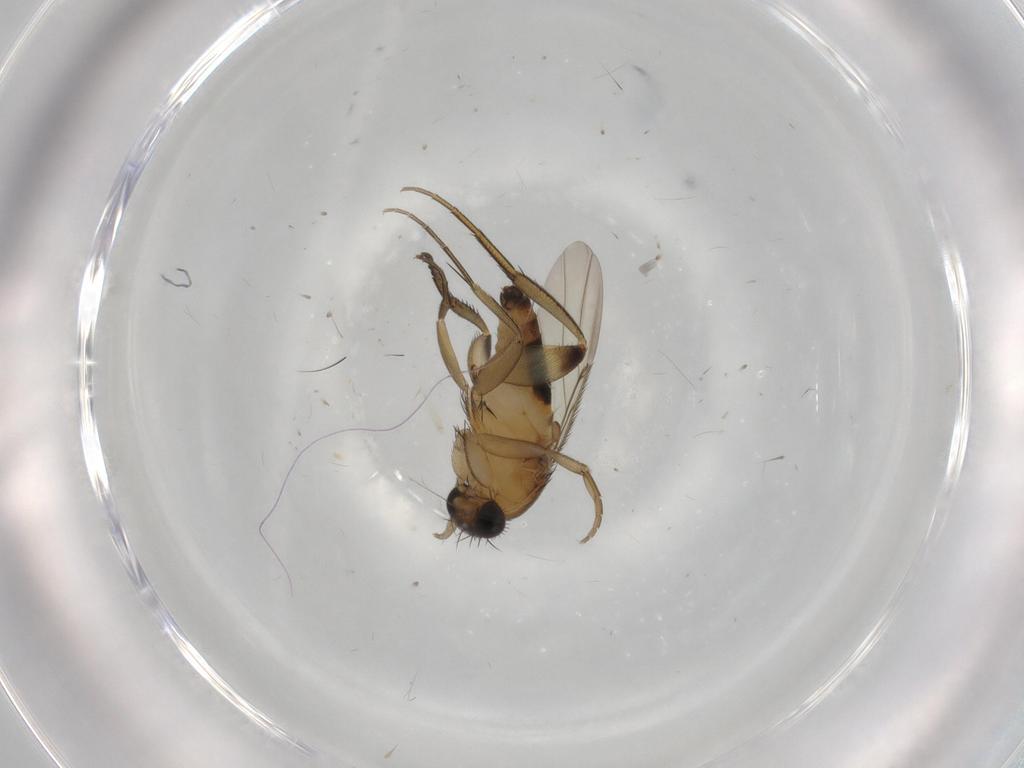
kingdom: Animalia
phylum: Arthropoda
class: Insecta
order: Diptera
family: Phoridae
